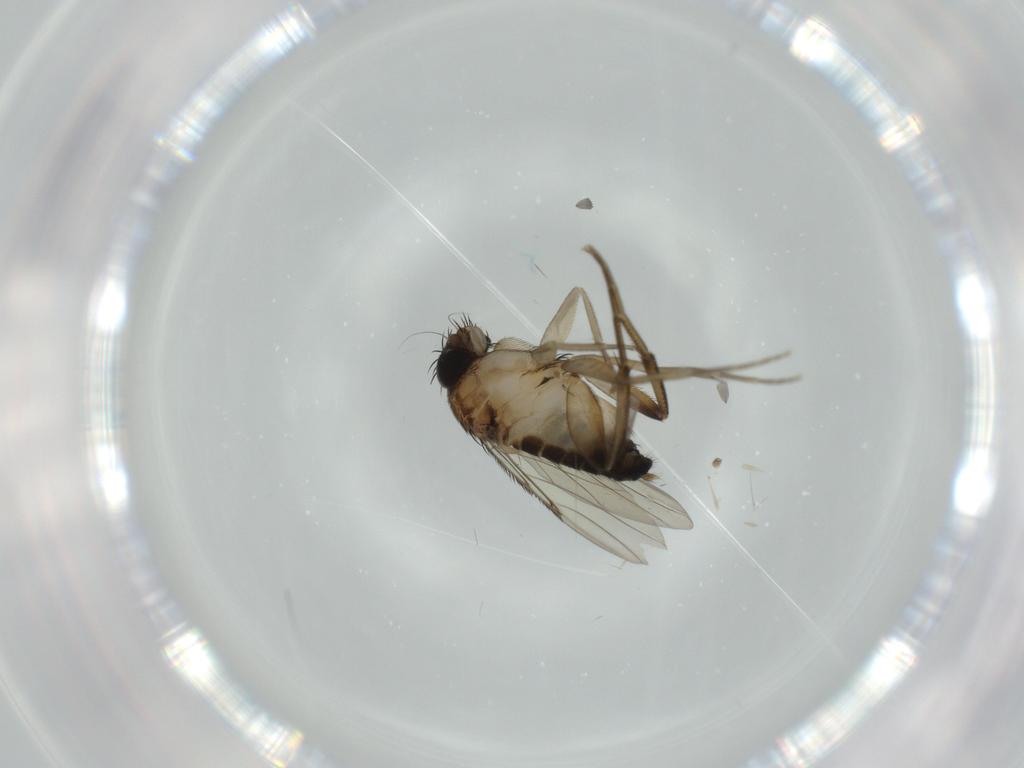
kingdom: Animalia
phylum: Arthropoda
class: Insecta
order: Diptera
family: Phoridae
